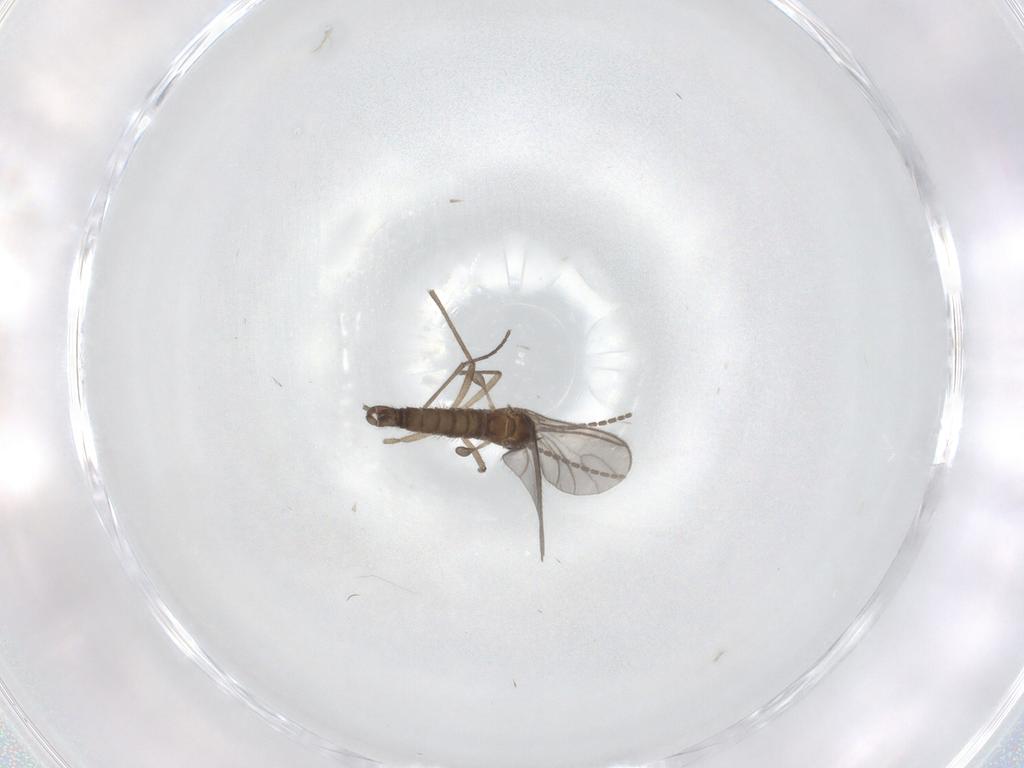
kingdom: Animalia
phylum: Arthropoda
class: Insecta
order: Diptera
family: Sciaridae
